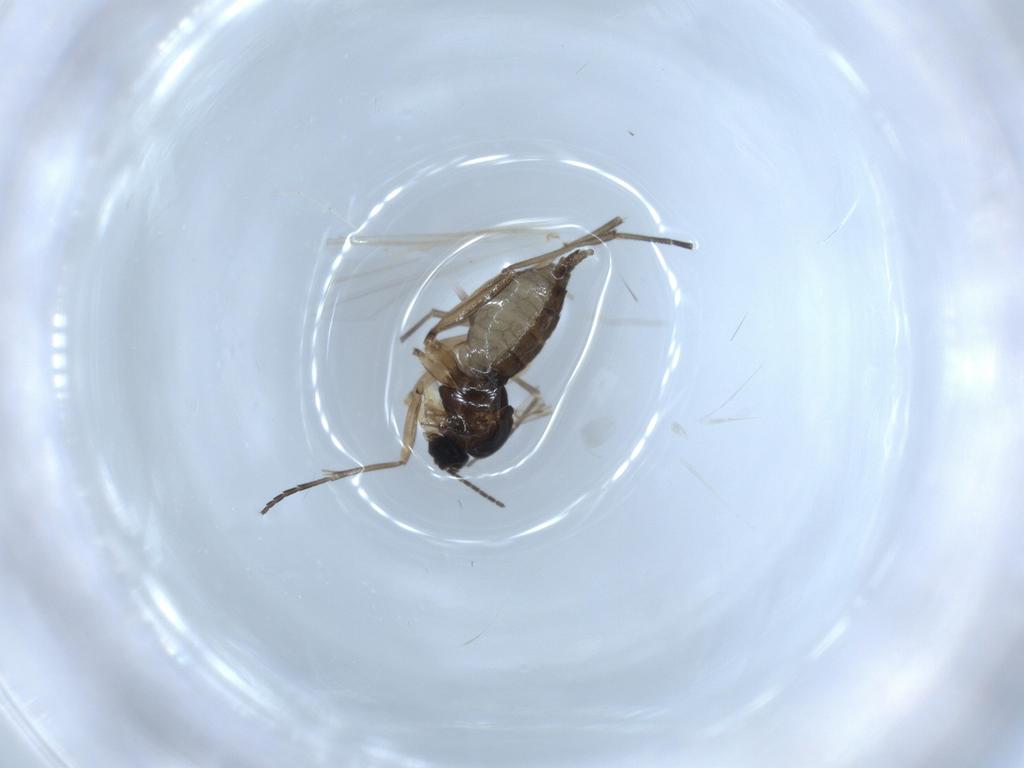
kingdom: Animalia
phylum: Arthropoda
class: Insecta
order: Diptera
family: Sciaridae
